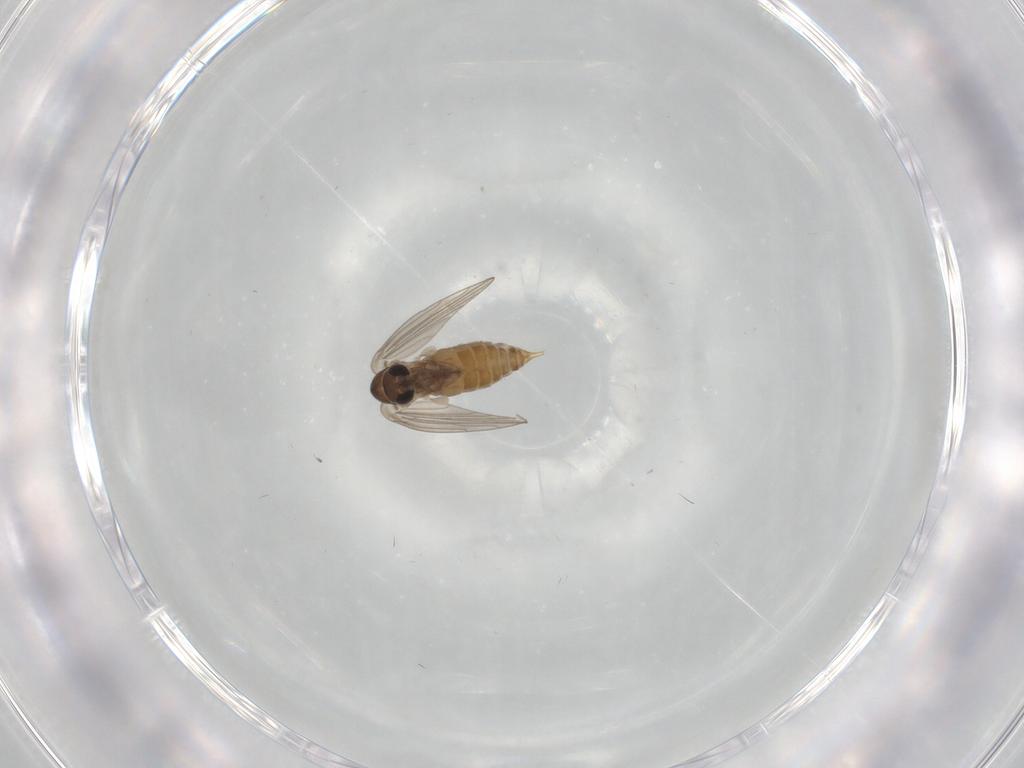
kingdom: Animalia
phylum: Arthropoda
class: Insecta
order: Diptera
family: Psychodidae
